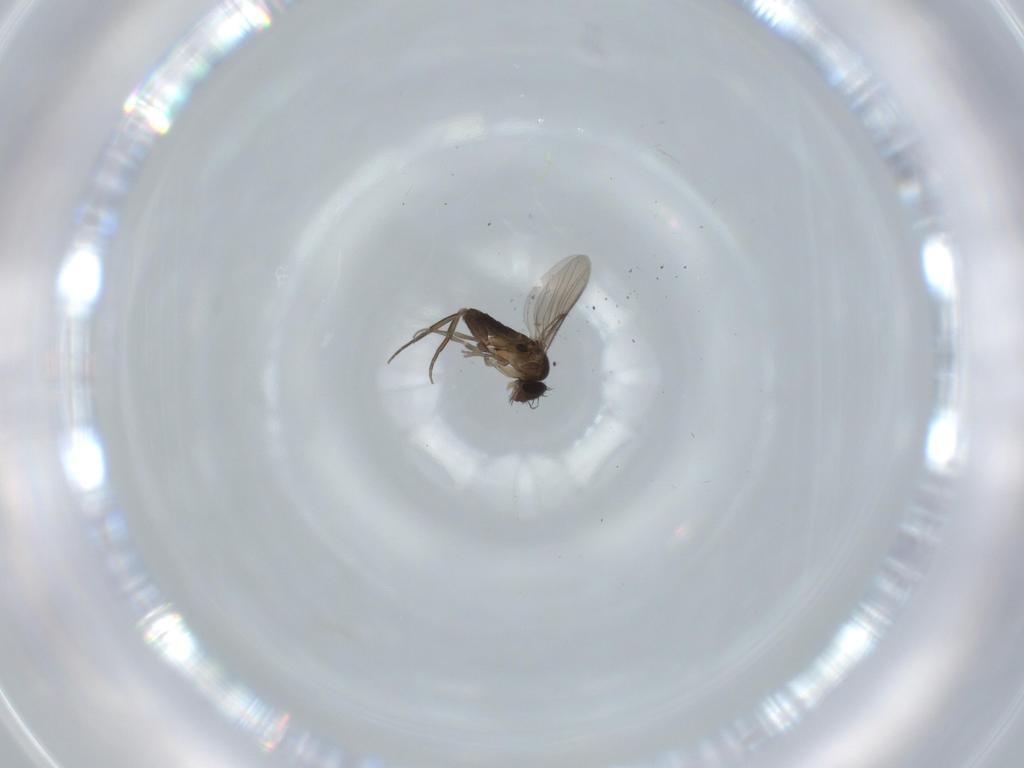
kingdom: Animalia
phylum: Arthropoda
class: Insecta
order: Diptera
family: Phoridae
